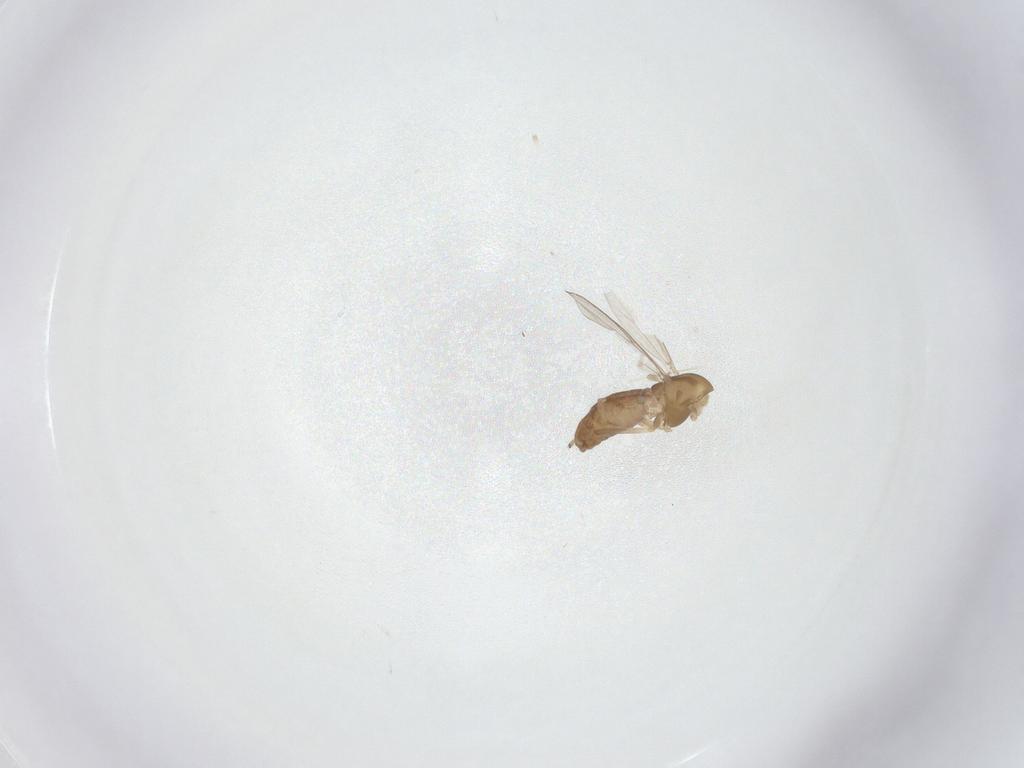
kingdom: Animalia
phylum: Arthropoda
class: Insecta
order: Diptera
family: Chironomidae
